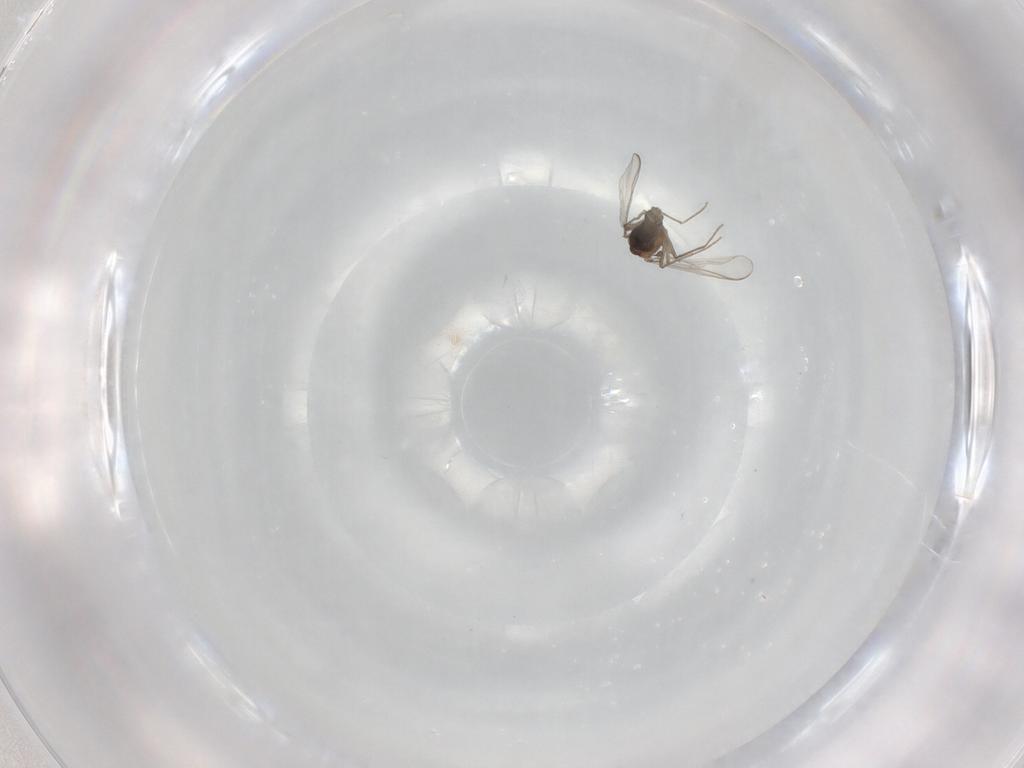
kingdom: Animalia
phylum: Arthropoda
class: Insecta
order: Diptera
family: Chironomidae
